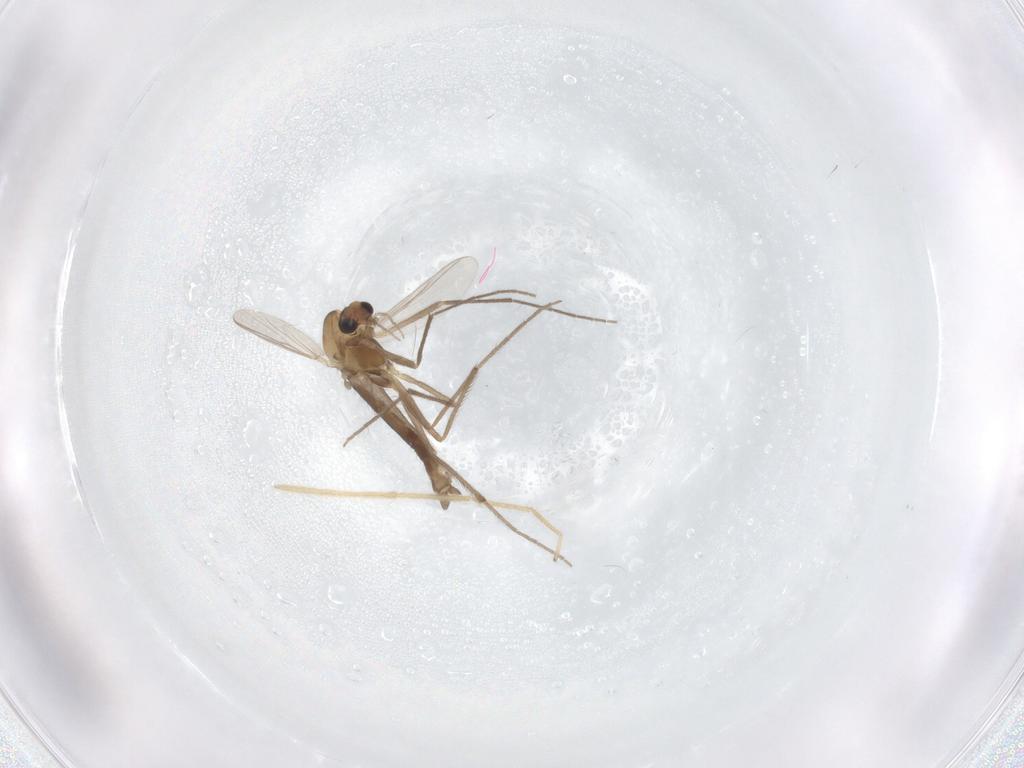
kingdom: Animalia
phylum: Arthropoda
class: Insecta
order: Diptera
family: Chironomidae
